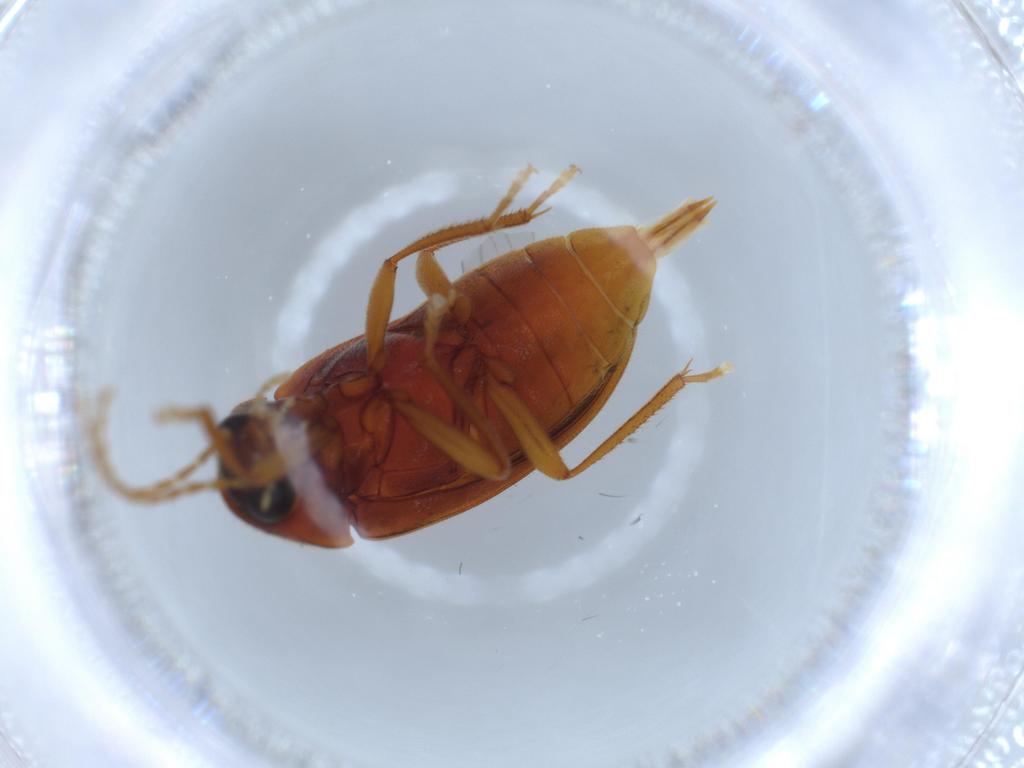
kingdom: Animalia
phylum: Arthropoda
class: Insecta
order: Coleoptera
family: Ptilodactylidae
